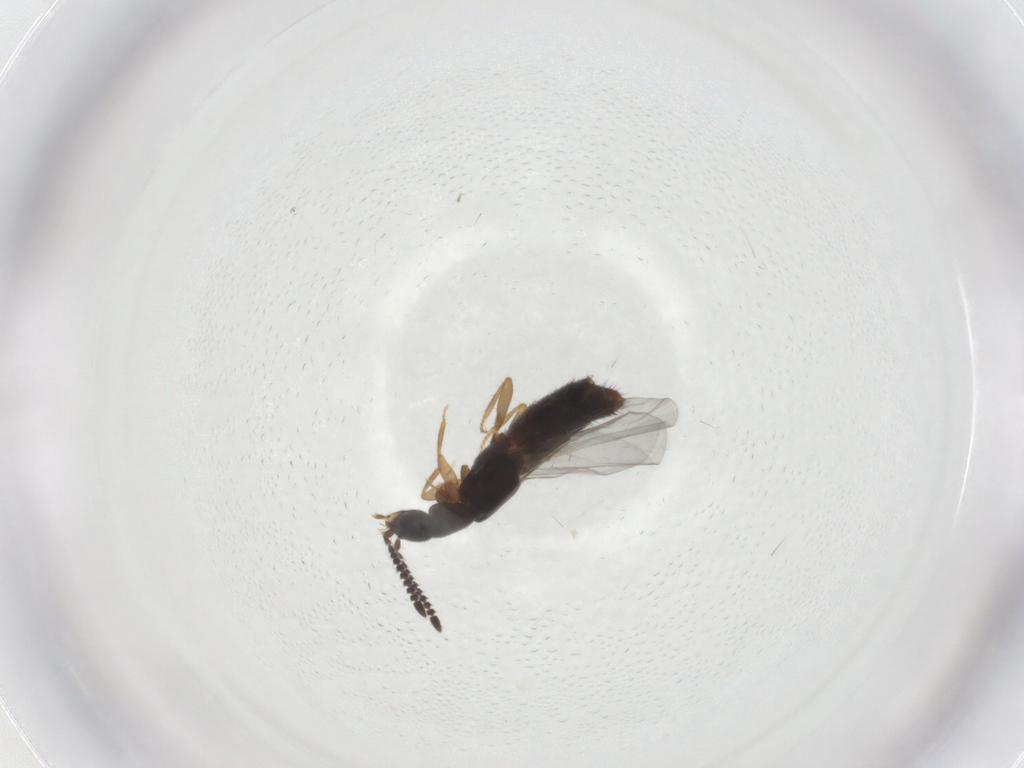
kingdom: Animalia
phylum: Arthropoda
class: Insecta
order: Coleoptera
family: Staphylinidae
